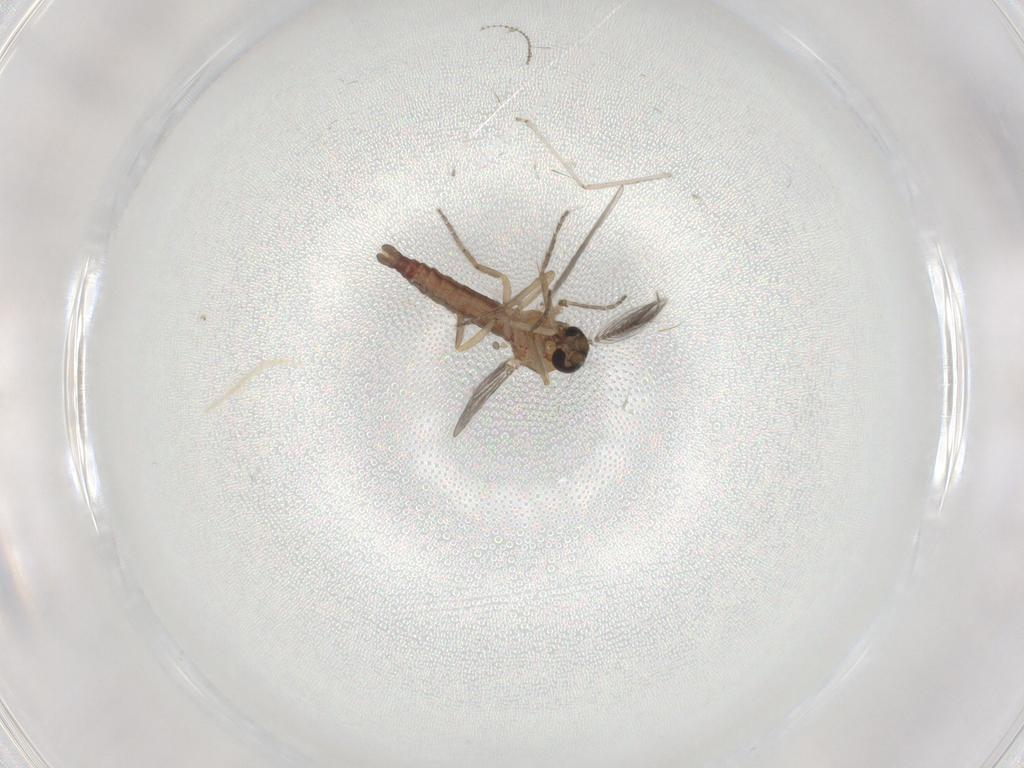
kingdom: Animalia
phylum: Arthropoda
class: Insecta
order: Diptera
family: Ceratopogonidae
